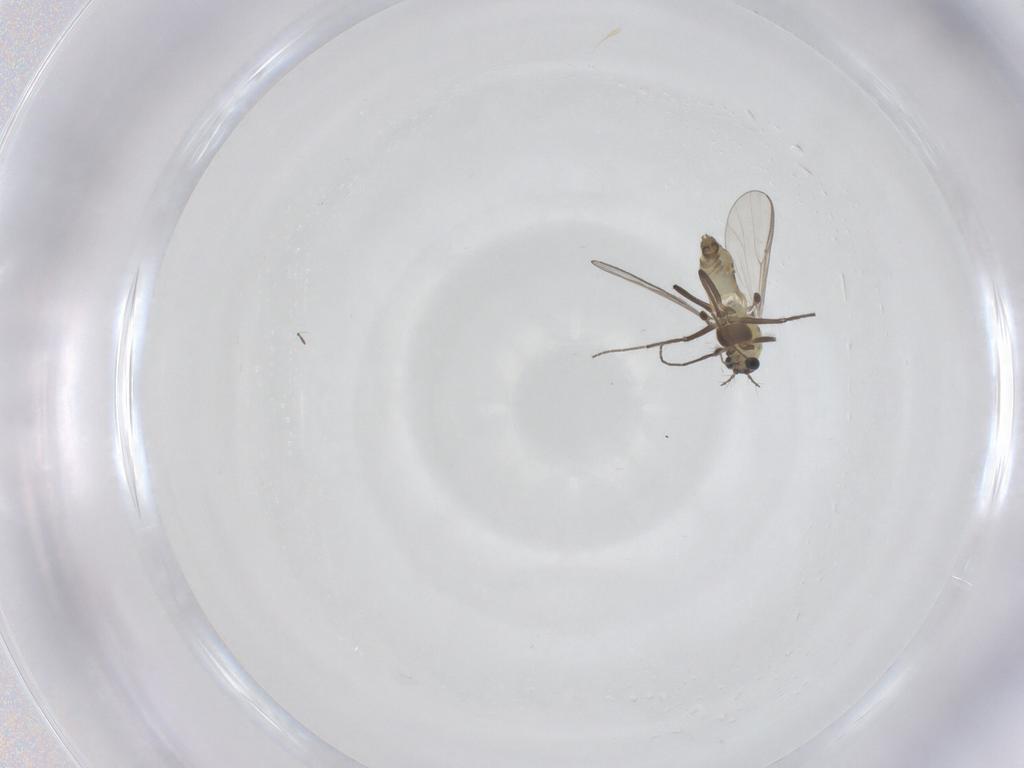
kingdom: Animalia
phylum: Arthropoda
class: Insecta
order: Diptera
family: Chironomidae
